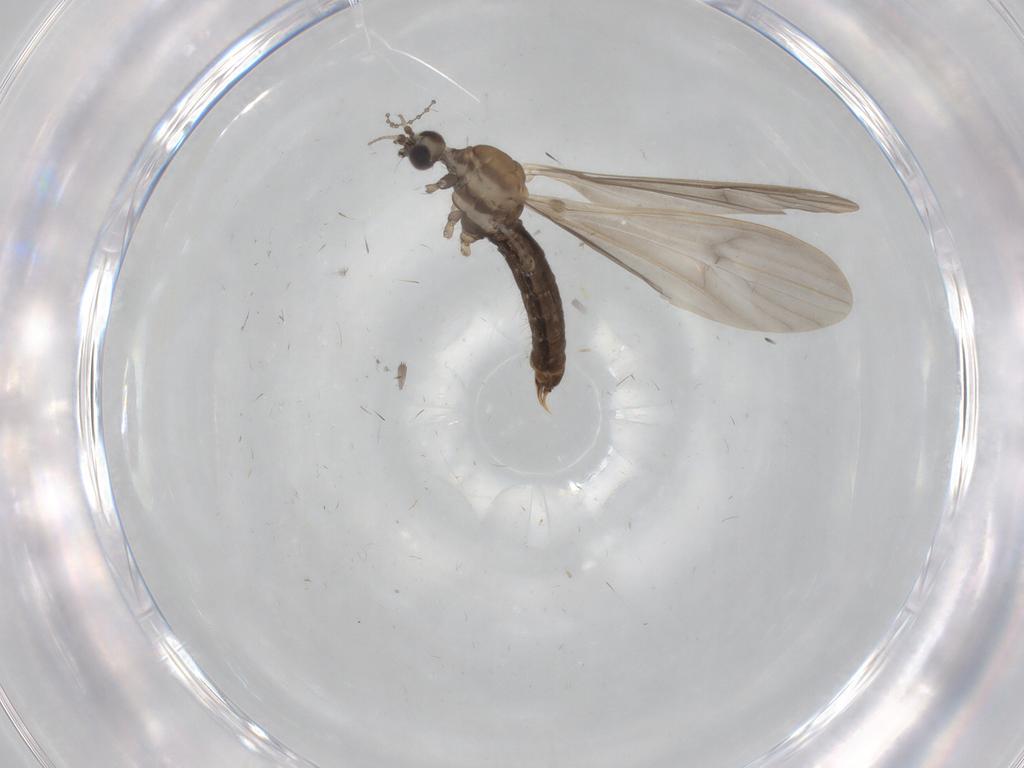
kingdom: Animalia
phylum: Arthropoda
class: Insecta
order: Diptera
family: Limoniidae
